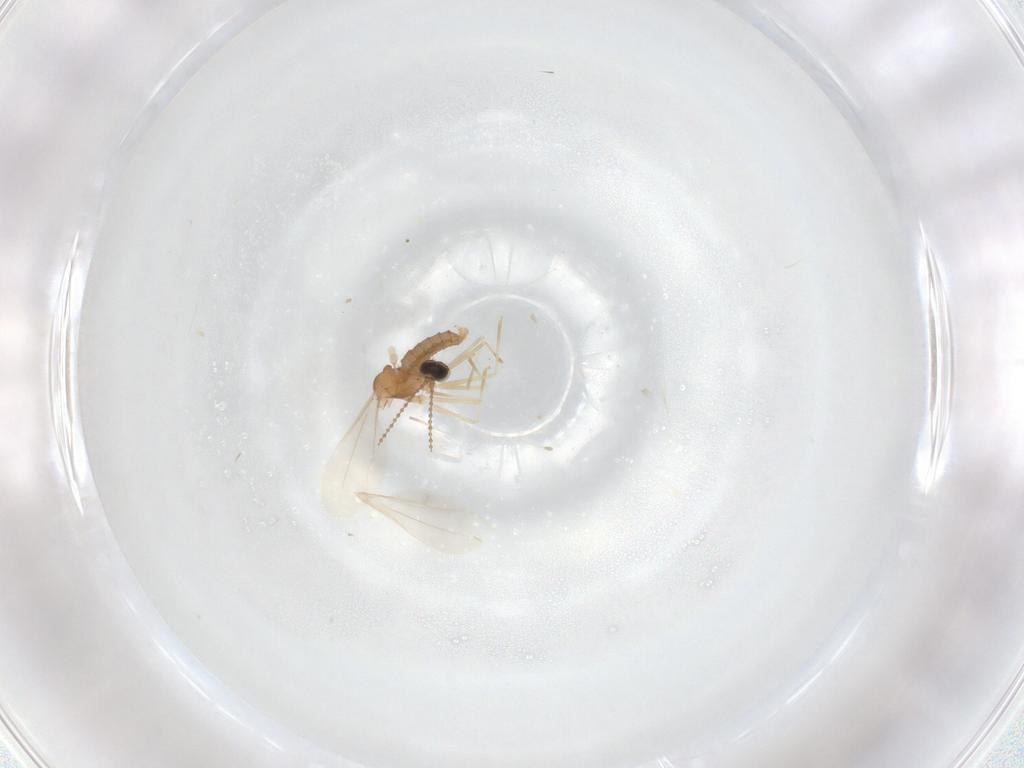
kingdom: Animalia
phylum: Arthropoda
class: Insecta
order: Diptera
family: Cecidomyiidae
